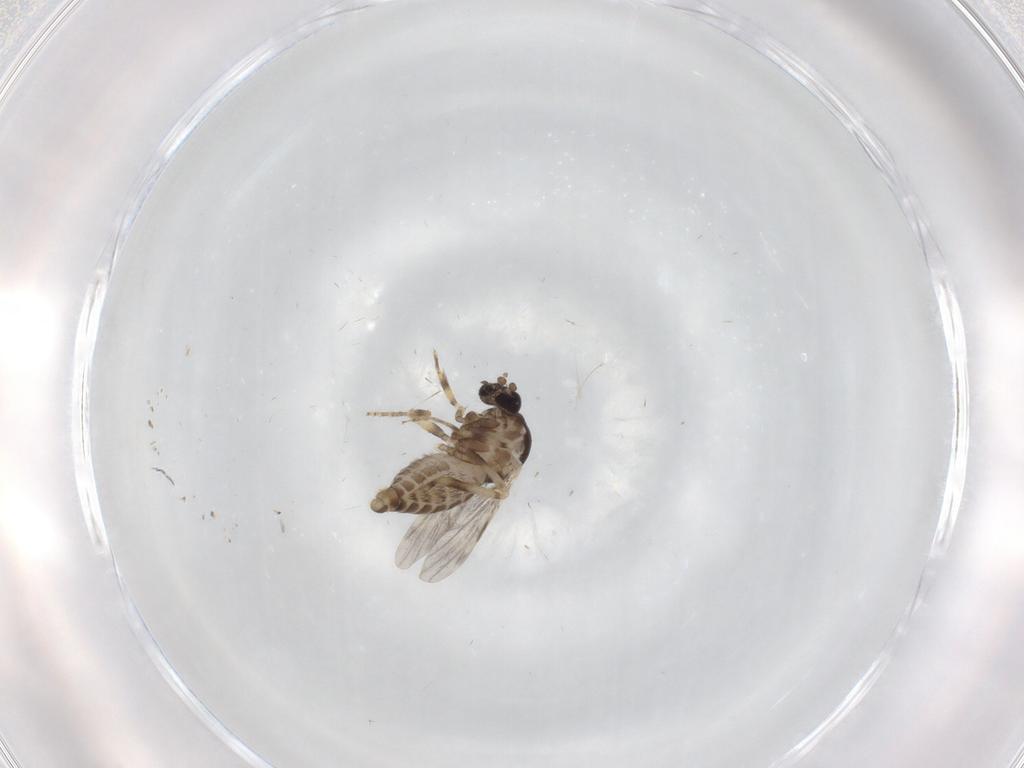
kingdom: Animalia
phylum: Arthropoda
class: Insecta
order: Diptera
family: Ceratopogonidae
